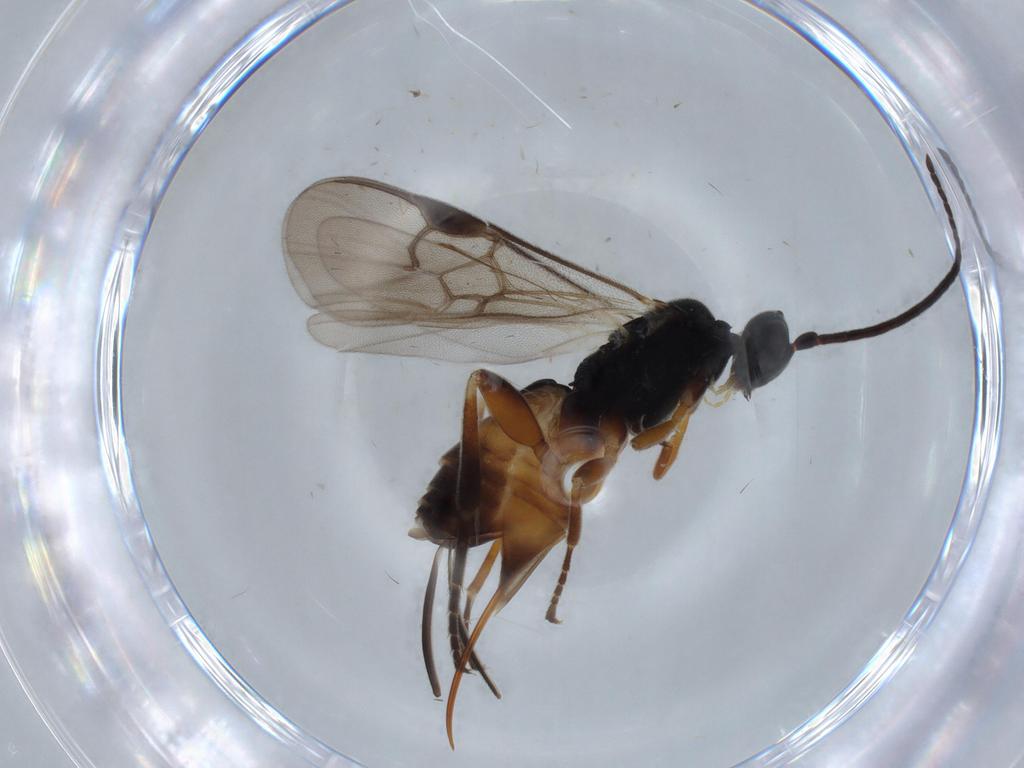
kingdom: Animalia
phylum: Arthropoda
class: Insecta
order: Hymenoptera
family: Braconidae
